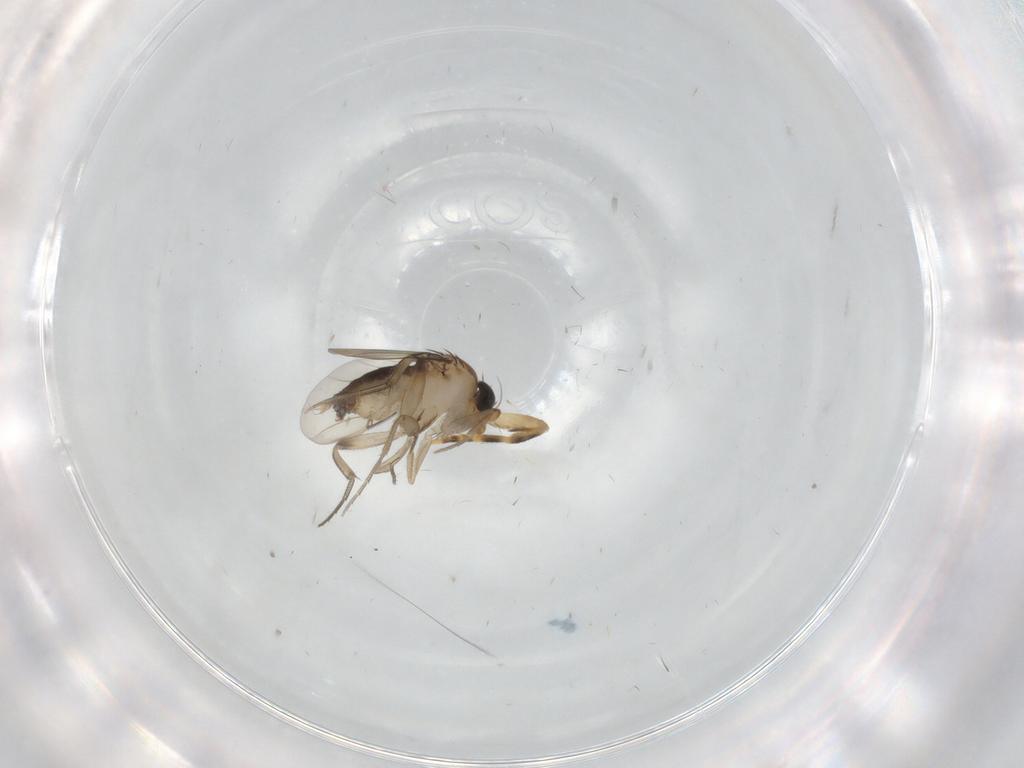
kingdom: Animalia
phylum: Arthropoda
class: Insecta
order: Diptera
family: Phoridae
